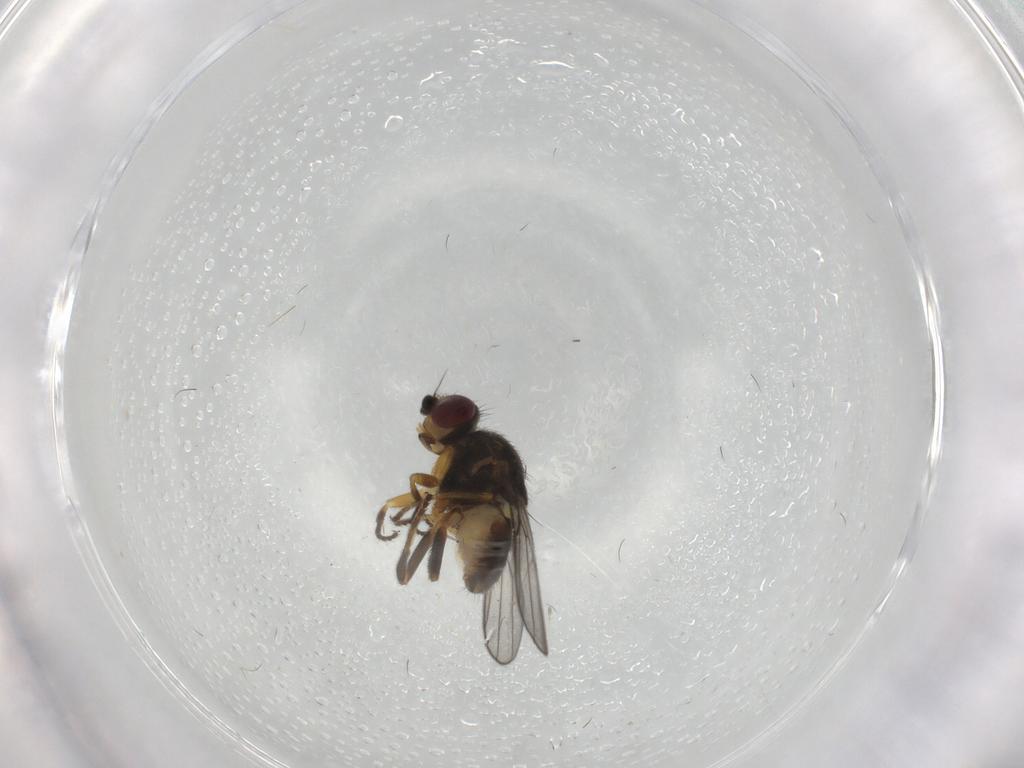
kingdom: Animalia
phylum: Arthropoda
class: Insecta
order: Diptera
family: Chloropidae
